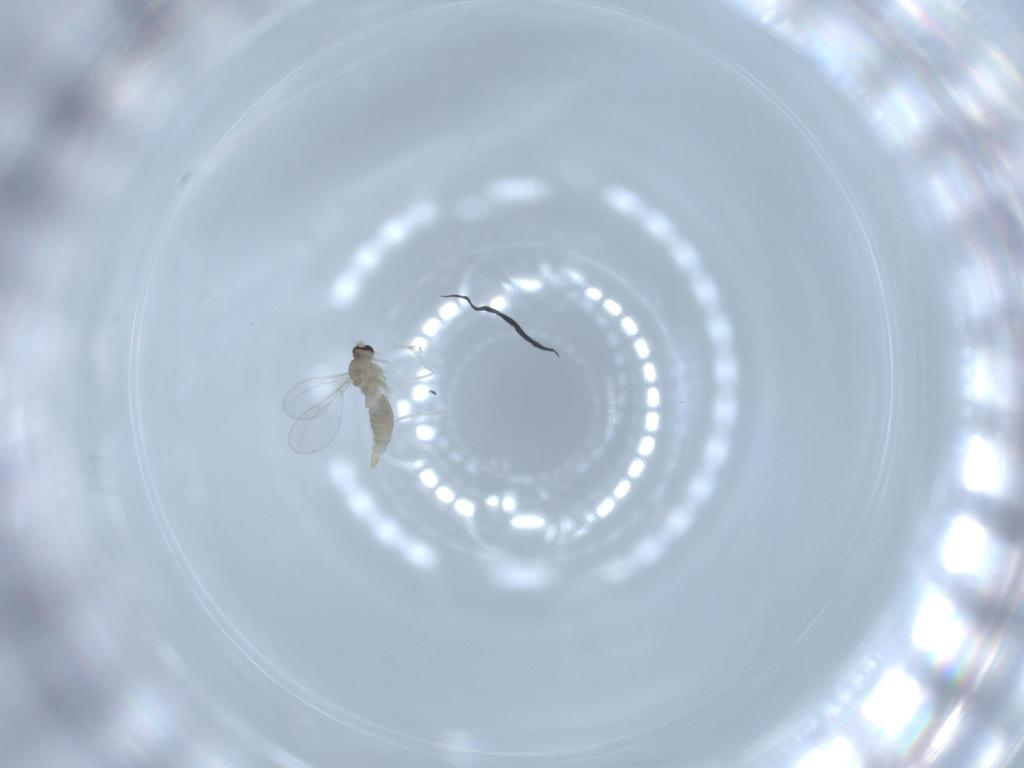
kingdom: Animalia
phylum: Arthropoda
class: Insecta
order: Diptera
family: Cecidomyiidae
